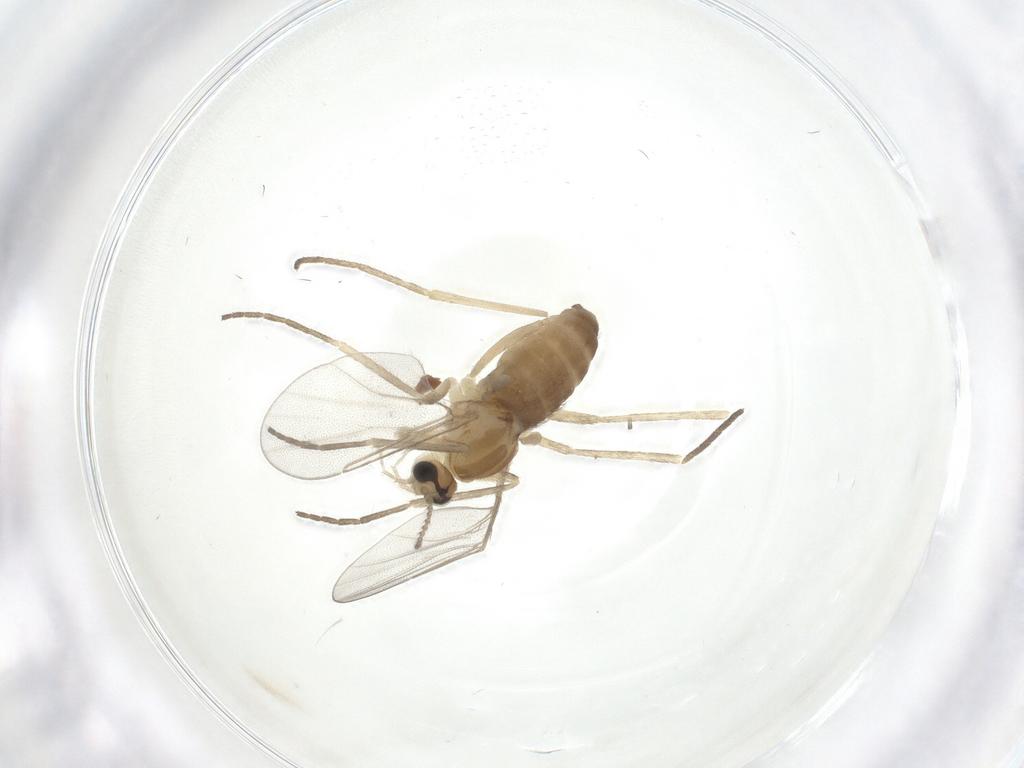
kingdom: Animalia
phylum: Arthropoda
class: Insecta
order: Diptera
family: Cecidomyiidae
